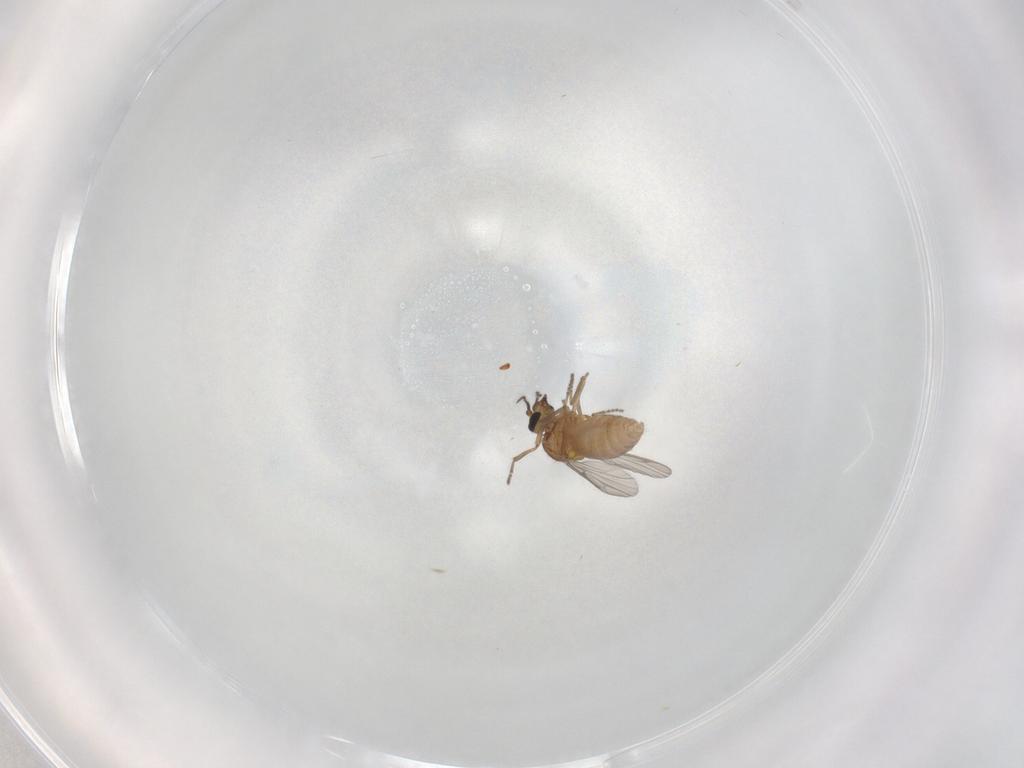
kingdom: Animalia
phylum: Arthropoda
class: Insecta
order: Diptera
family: Ceratopogonidae
